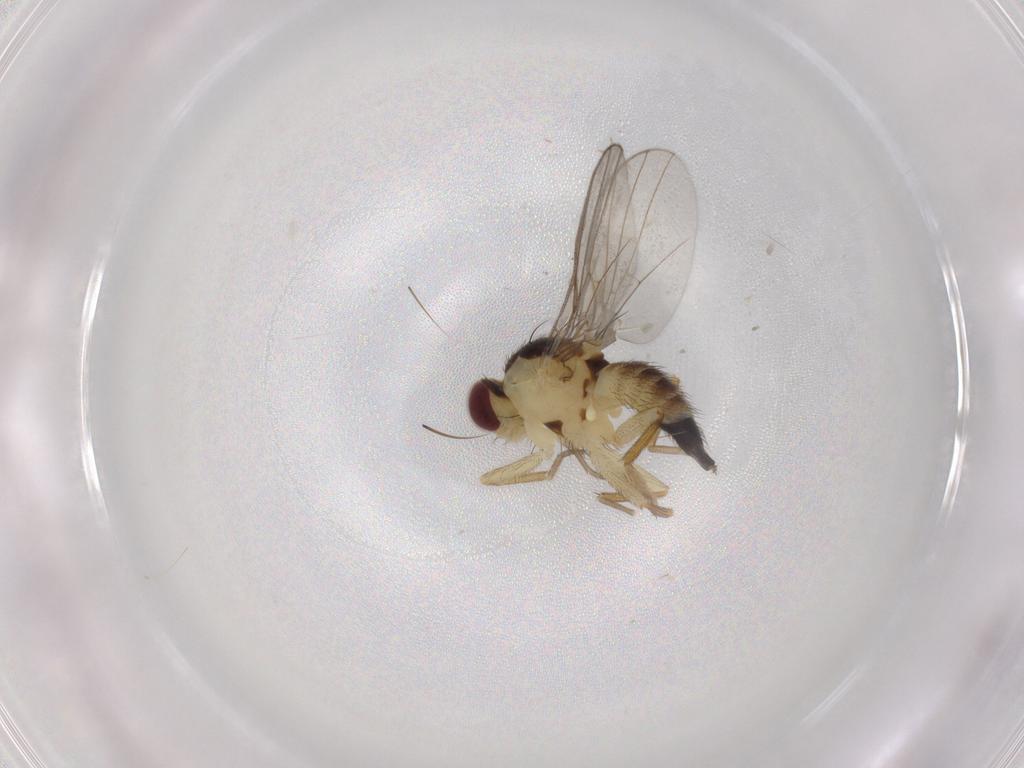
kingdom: Animalia
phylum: Arthropoda
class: Insecta
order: Diptera
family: Agromyzidae
